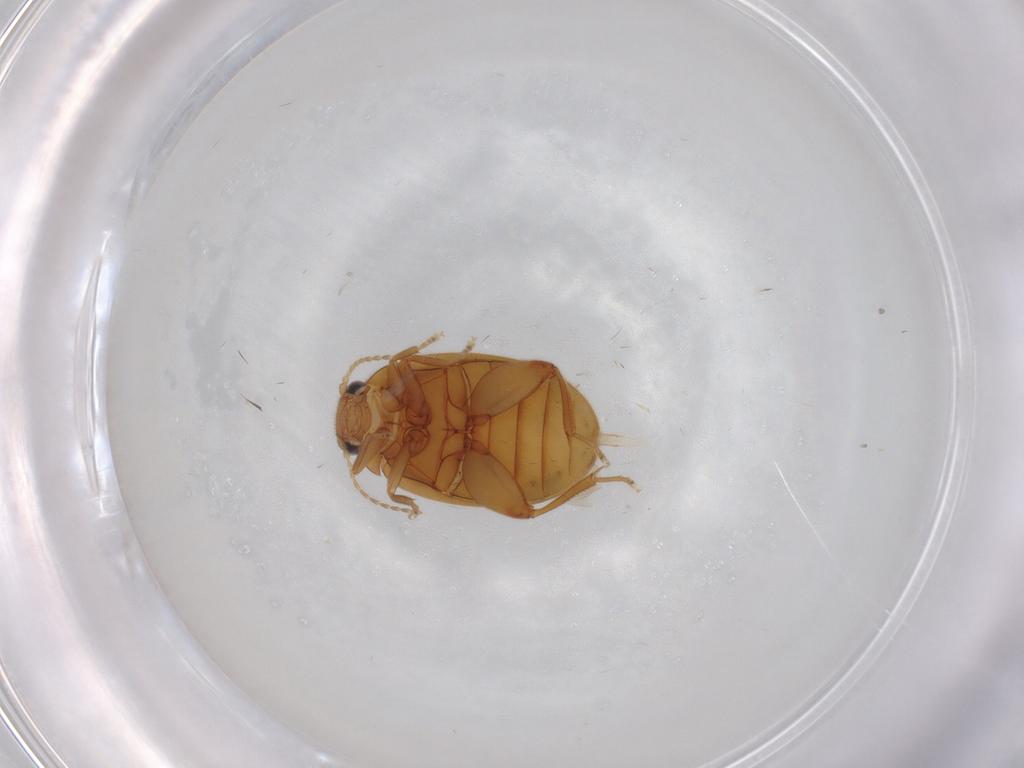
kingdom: Animalia
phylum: Arthropoda
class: Insecta
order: Coleoptera
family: Scirtidae
